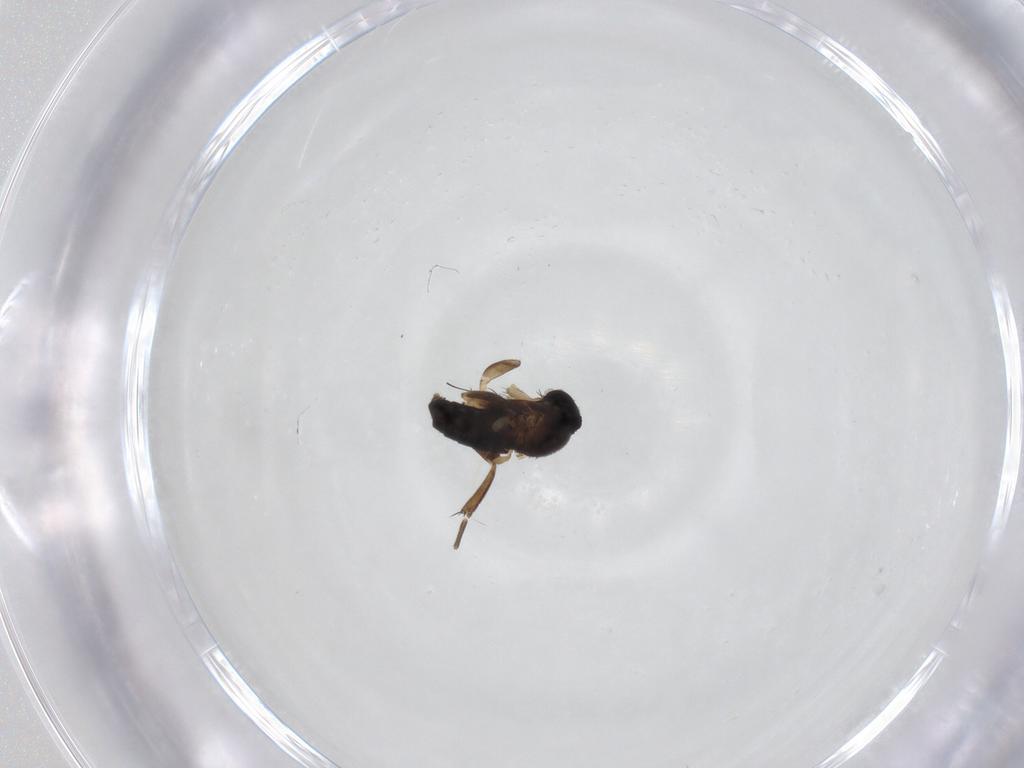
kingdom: Animalia
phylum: Arthropoda
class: Insecta
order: Diptera
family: Phoridae
